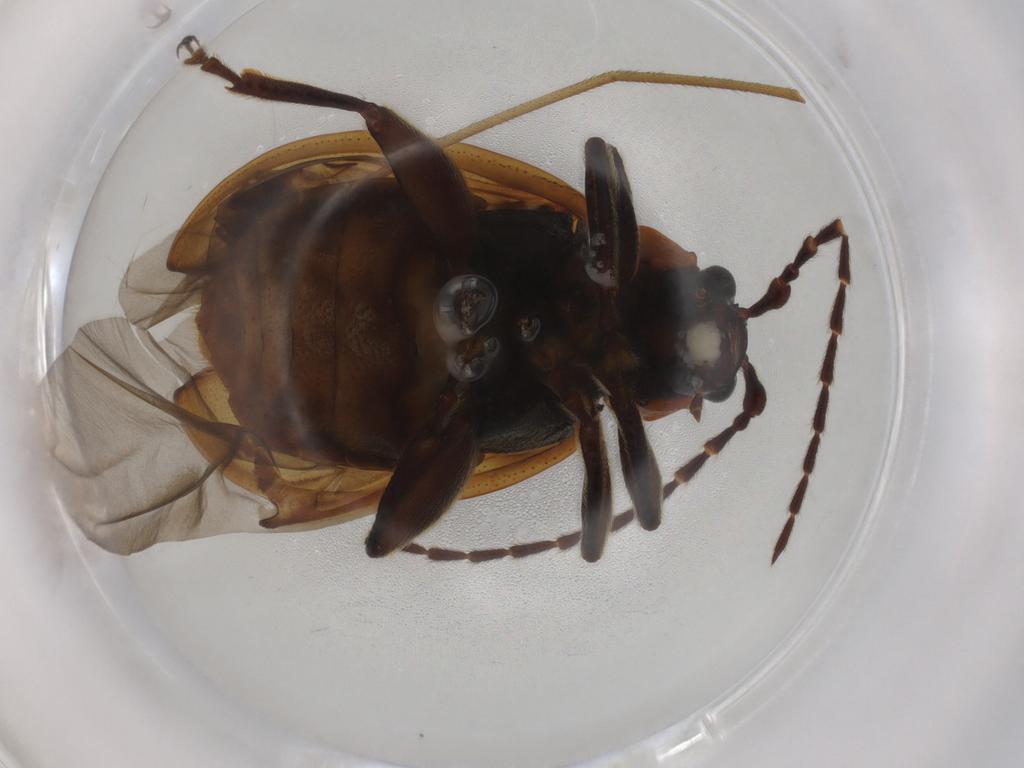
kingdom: Animalia
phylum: Arthropoda
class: Insecta
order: Coleoptera
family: Chrysomelidae
